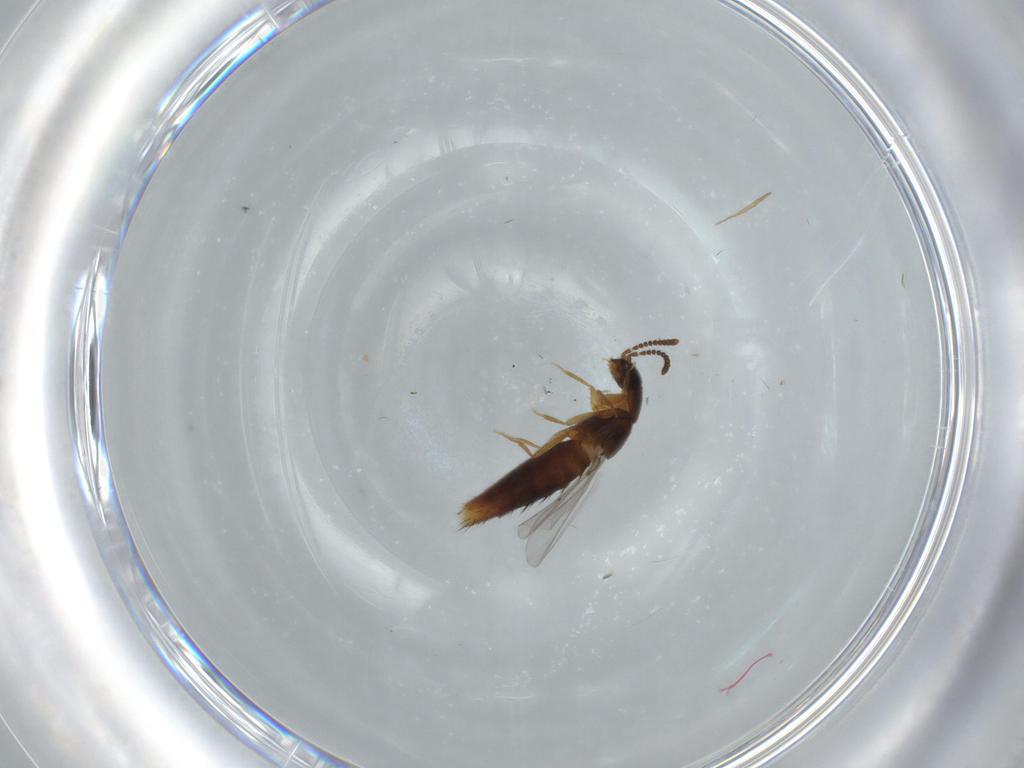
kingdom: Animalia
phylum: Arthropoda
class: Insecta
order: Coleoptera
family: Staphylinidae
